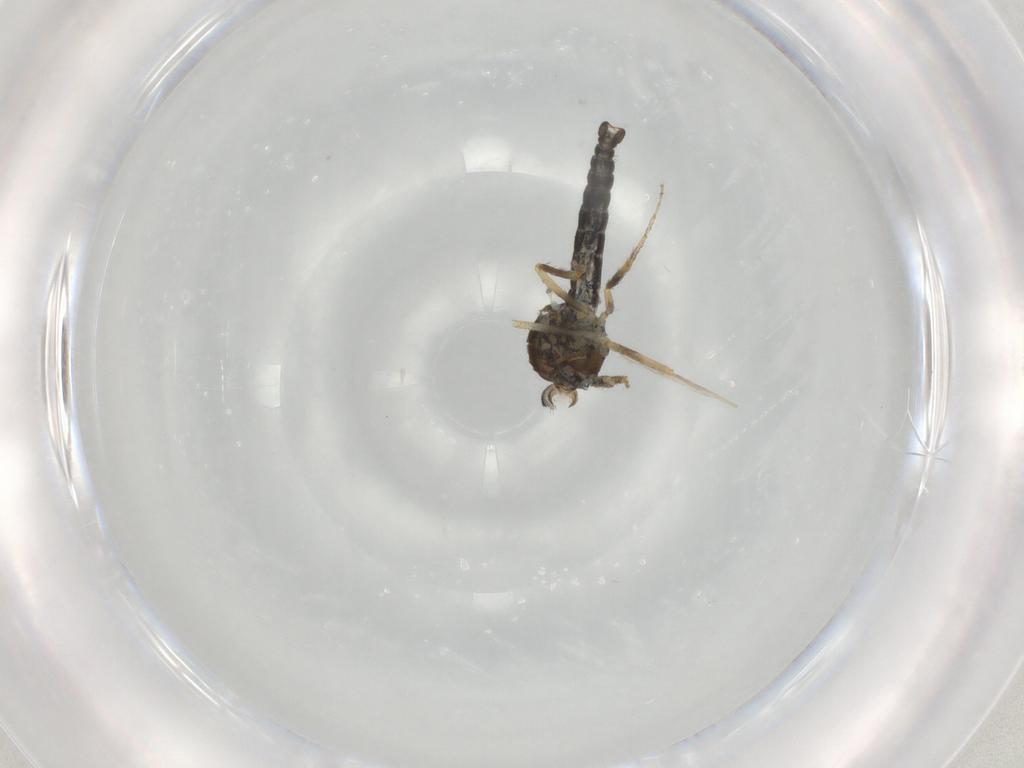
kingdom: Animalia
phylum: Arthropoda
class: Insecta
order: Diptera
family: Ceratopogonidae
